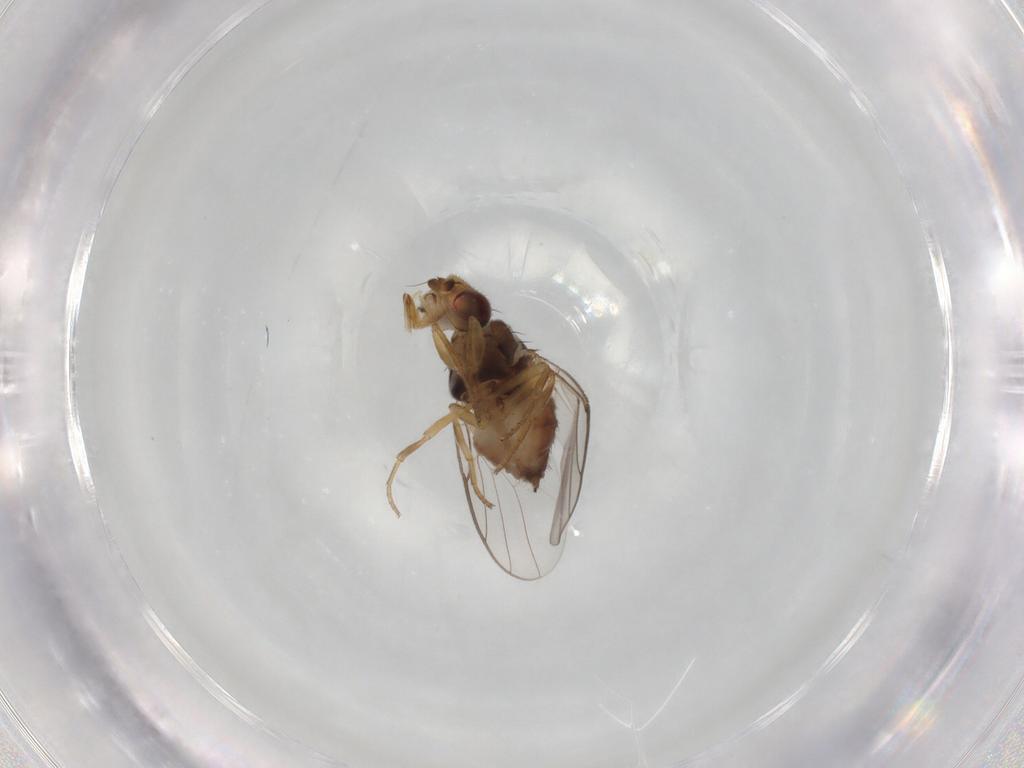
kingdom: Animalia
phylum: Arthropoda
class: Insecta
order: Diptera
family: Chloropidae
